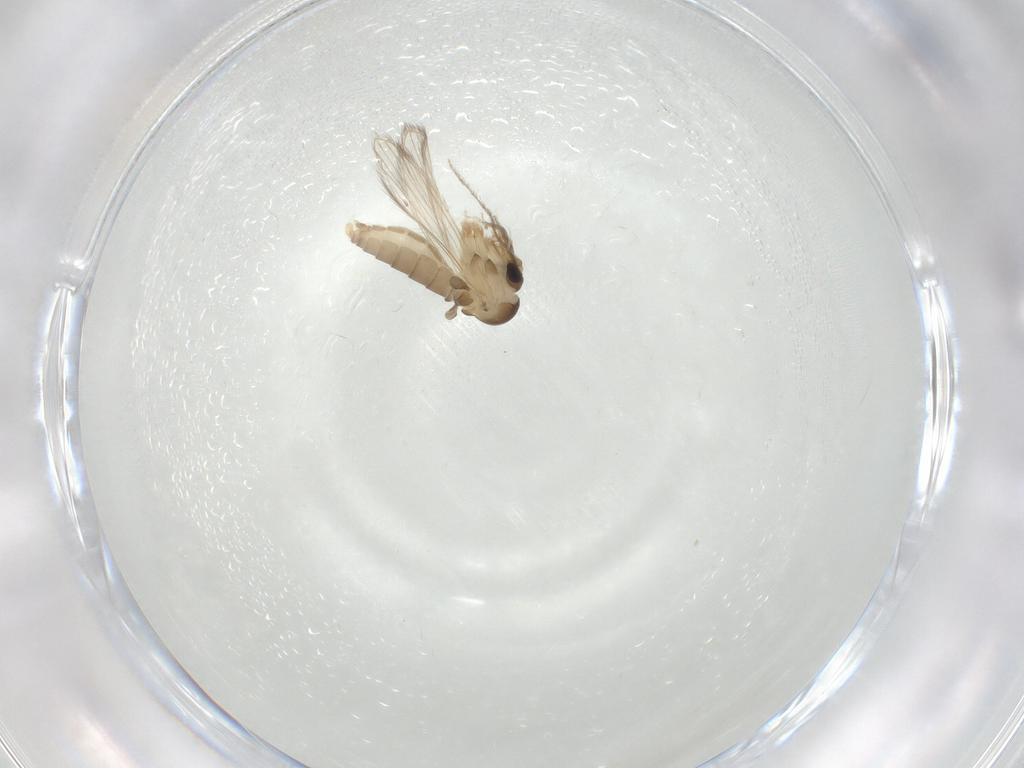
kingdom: Animalia
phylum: Arthropoda
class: Insecta
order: Diptera
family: Psychodidae
